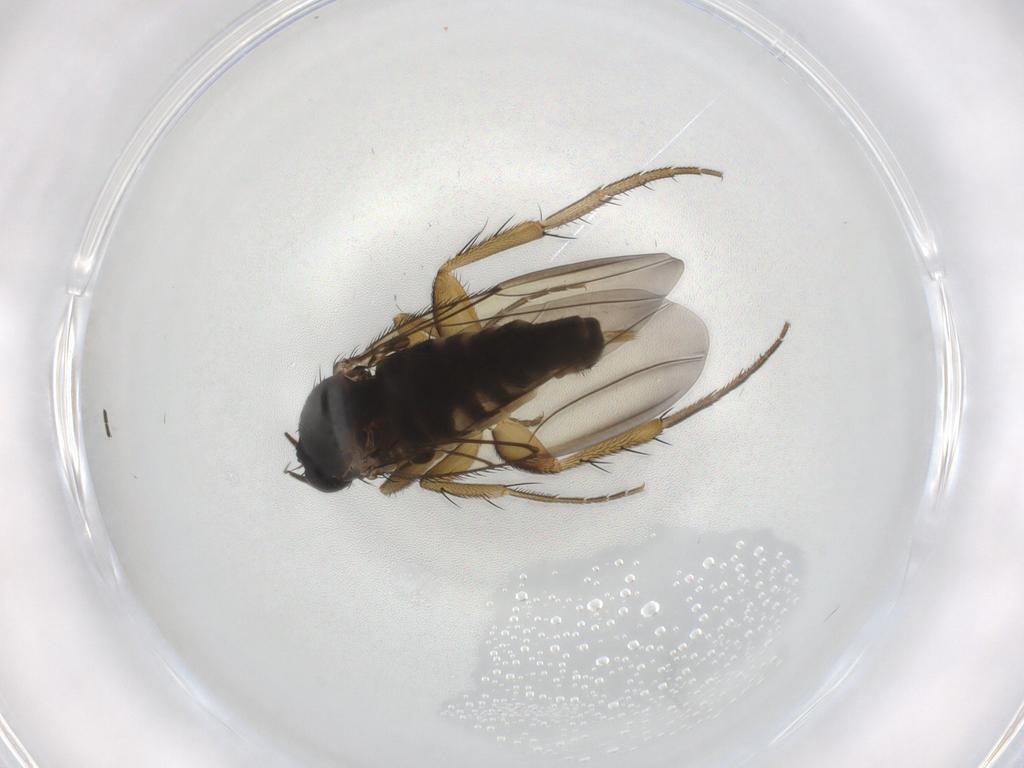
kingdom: Animalia
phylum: Arthropoda
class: Insecta
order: Diptera
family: Phoridae
